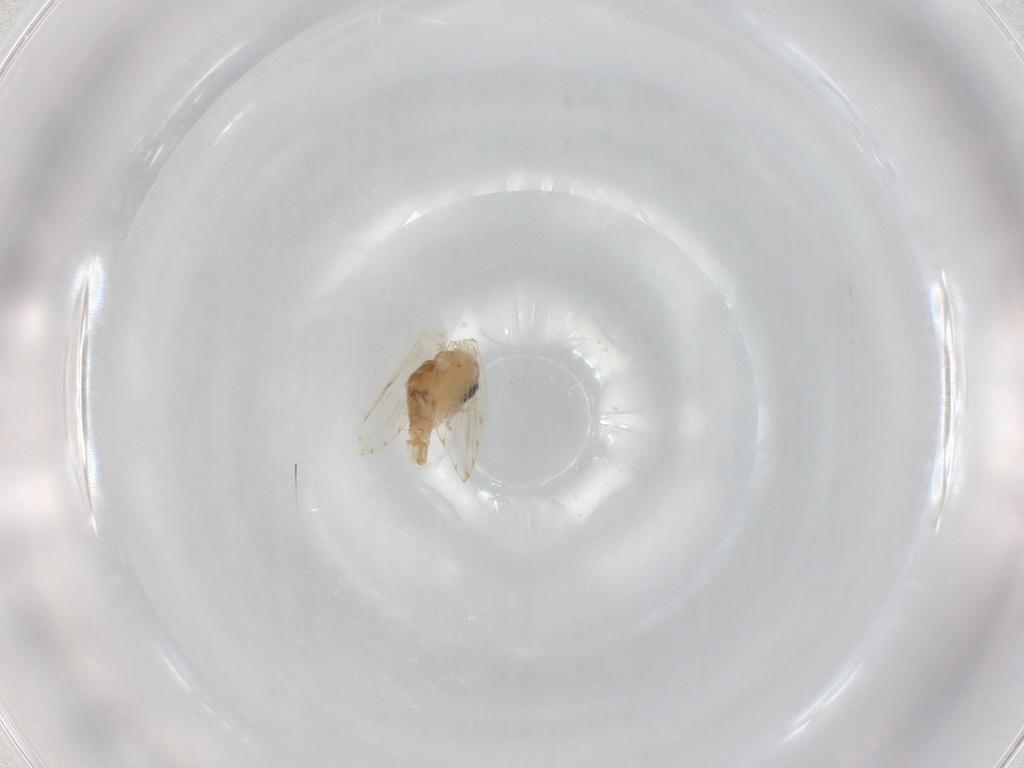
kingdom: Animalia
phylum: Arthropoda
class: Insecta
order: Diptera
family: Psychodidae
